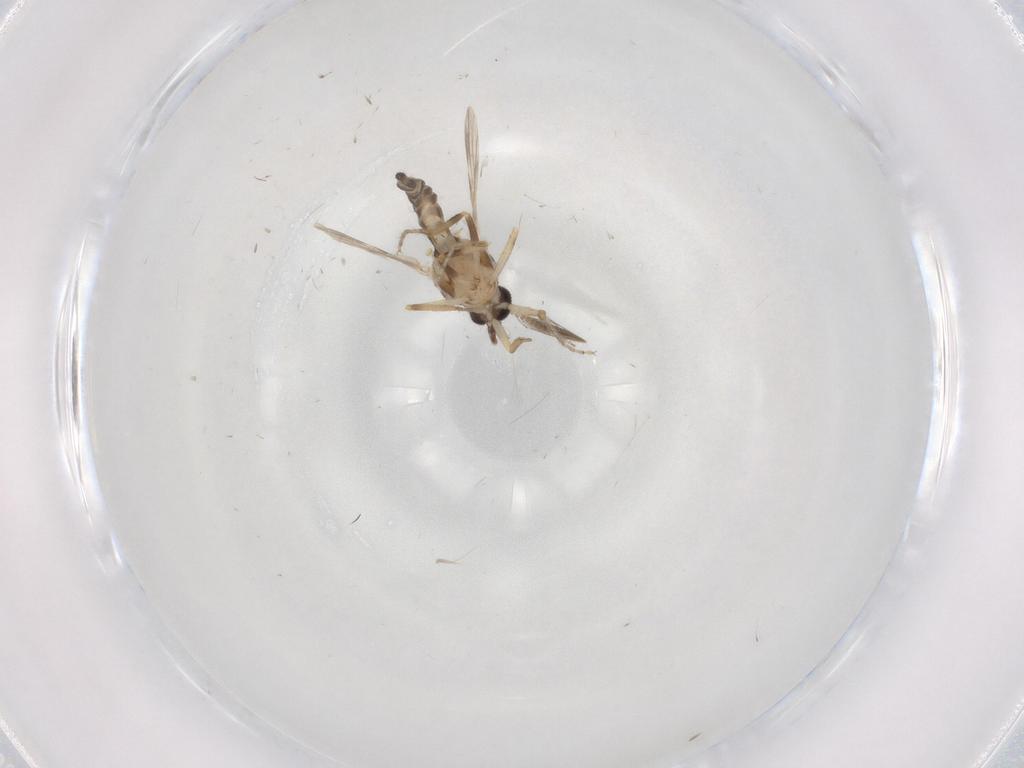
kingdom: Animalia
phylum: Arthropoda
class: Insecta
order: Diptera
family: Ceratopogonidae
